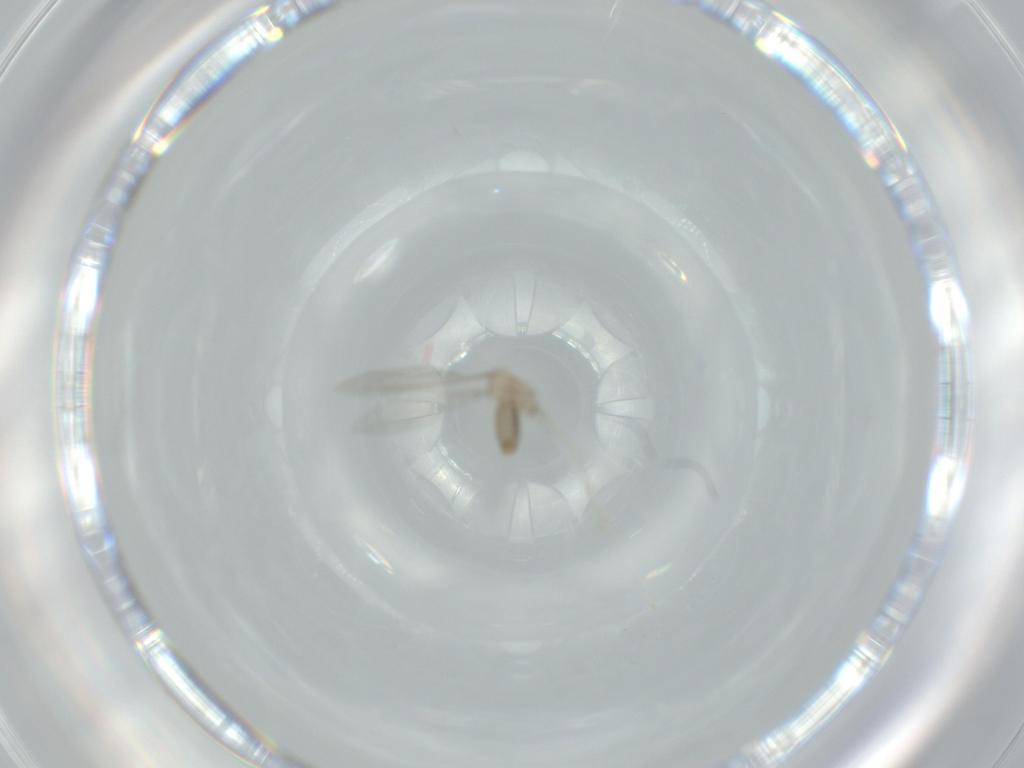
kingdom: Animalia
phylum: Arthropoda
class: Insecta
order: Diptera
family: Cecidomyiidae
